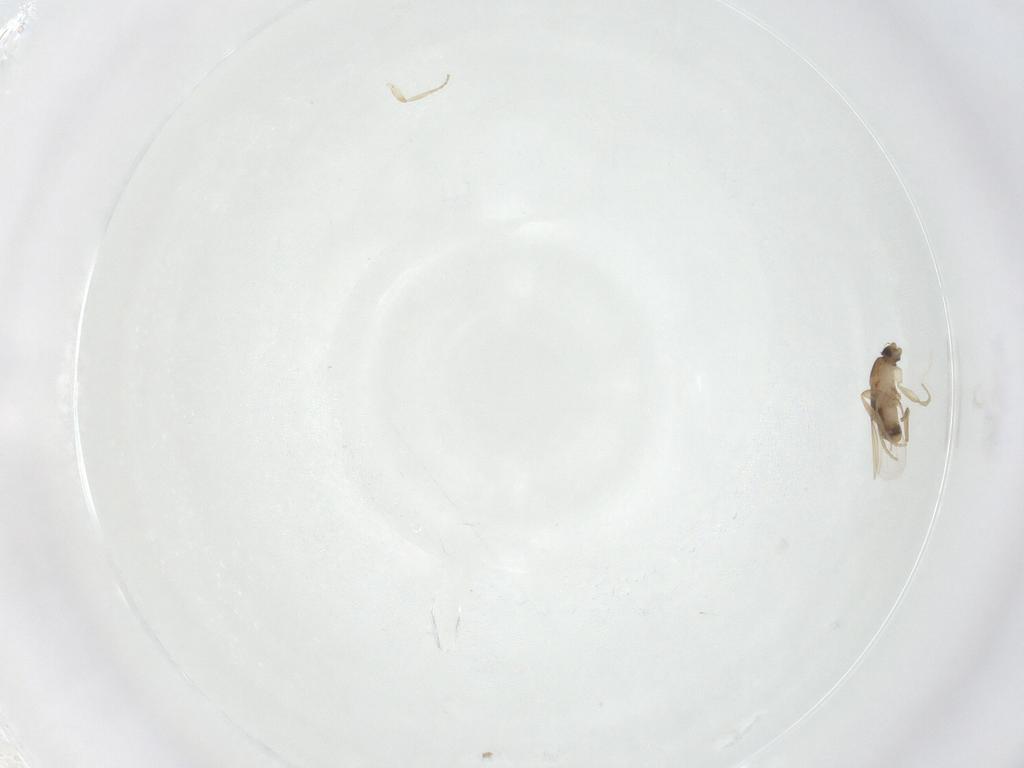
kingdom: Animalia
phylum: Arthropoda
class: Insecta
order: Diptera
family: Phoridae
